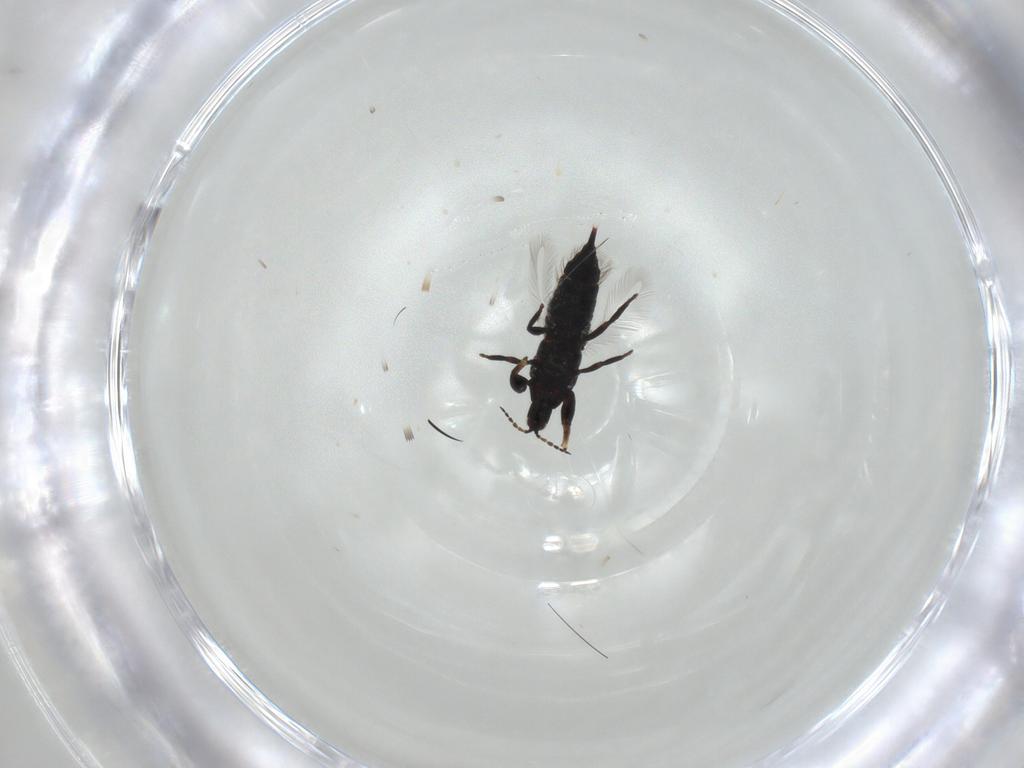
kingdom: Animalia
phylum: Arthropoda
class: Insecta
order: Thysanoptera
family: Phlaeothripidae
